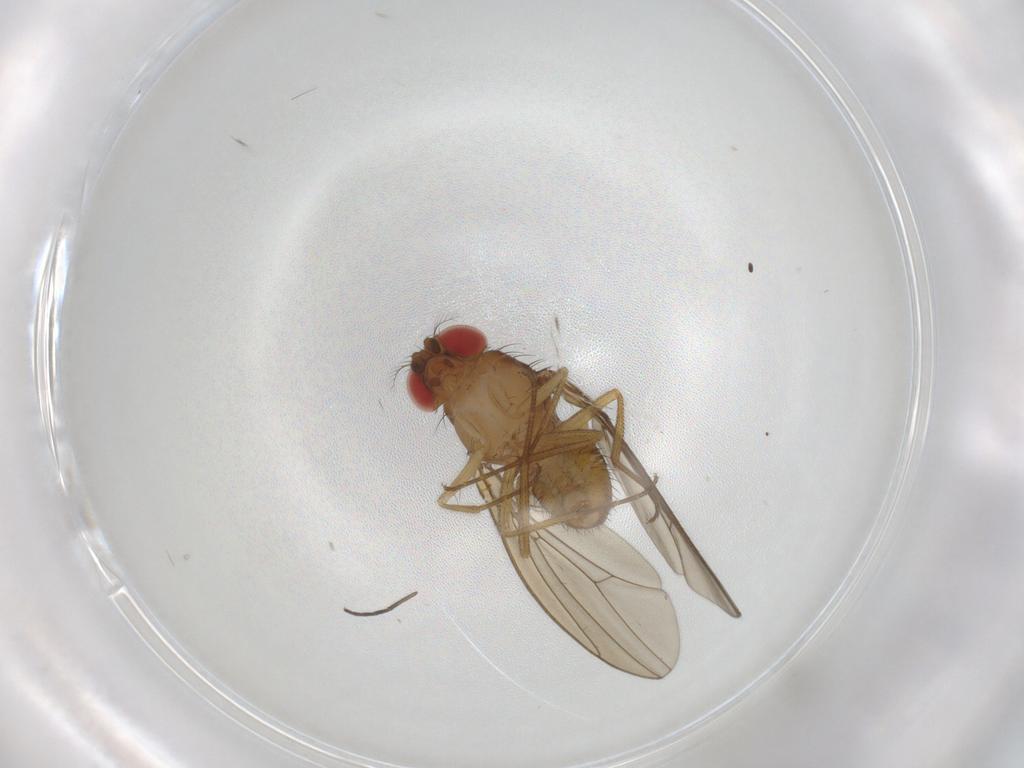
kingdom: Animalia
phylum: Arthropoda
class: Insecta
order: Diptera
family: Drosophilidae
